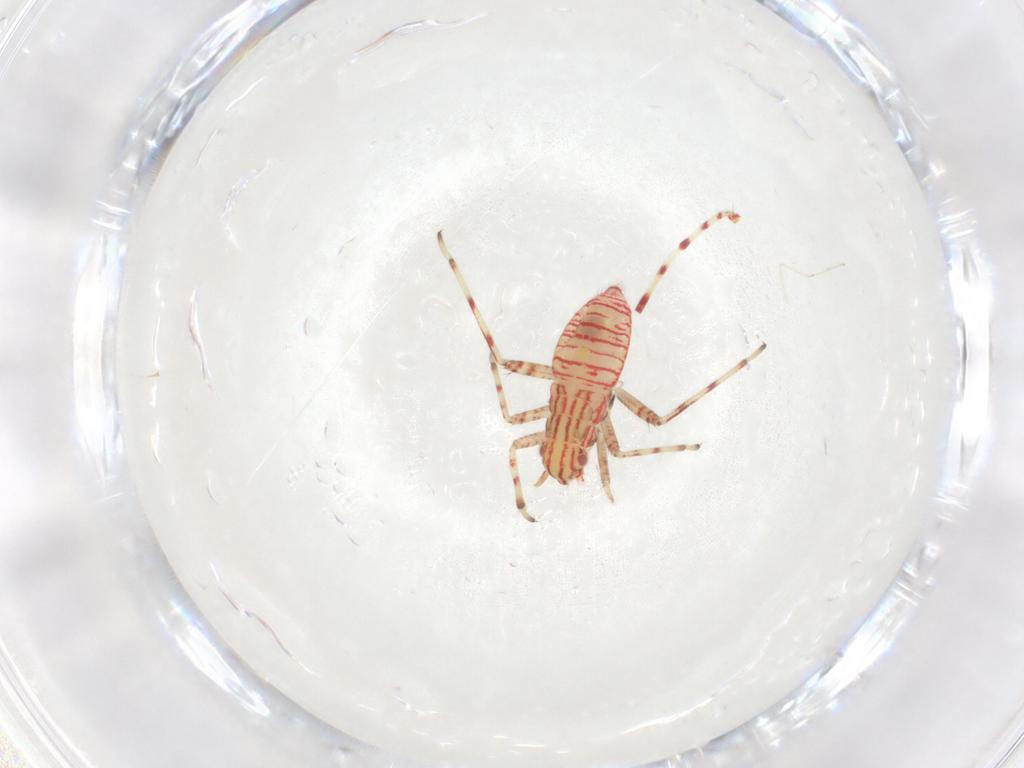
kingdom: Animalia
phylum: Arthropoda
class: Insecta
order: Hemiptera
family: Miridae
